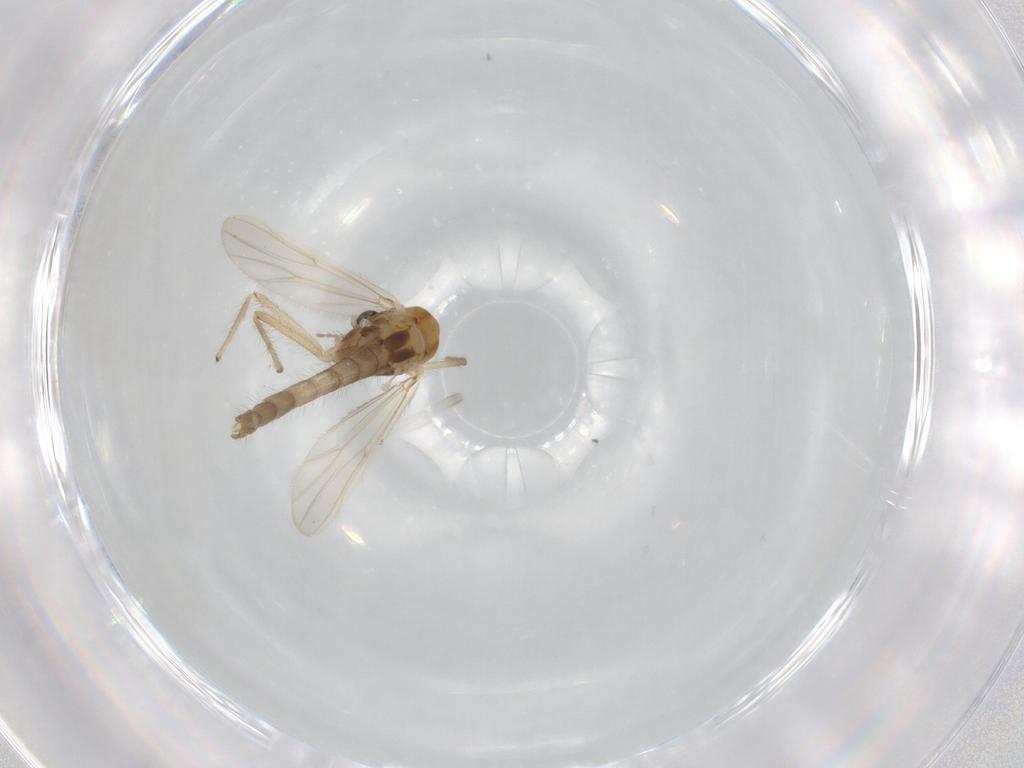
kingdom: Animalia
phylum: Arthropoda
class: Insecta
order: Diptera
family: Chironomidae
